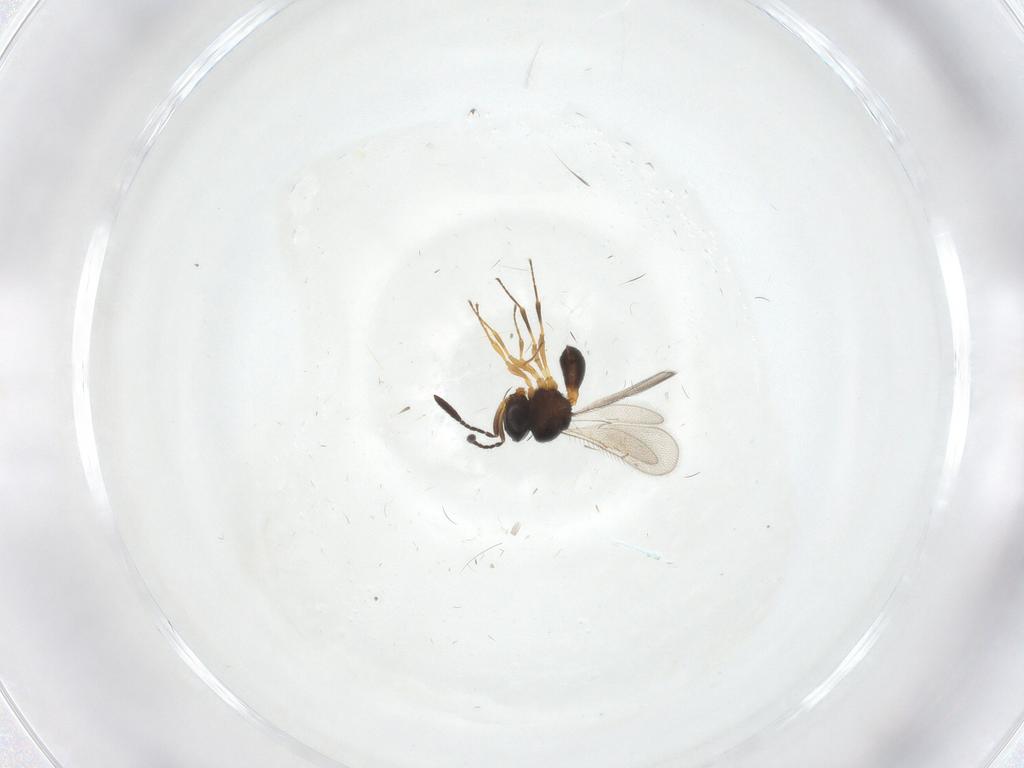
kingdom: Animalia
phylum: Arthropoda
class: Insecta
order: Hymenoptera
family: Scelionidae
